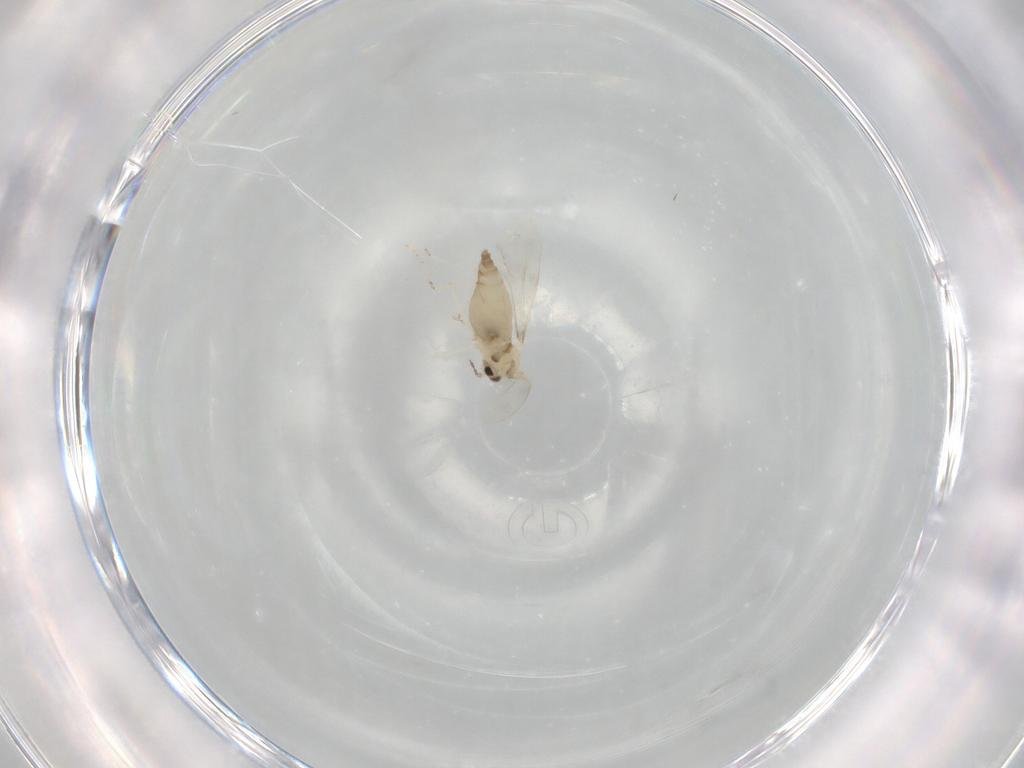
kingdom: Animalia
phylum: Arthropoda
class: Insecta
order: Diptera
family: Cecidomyiidae
